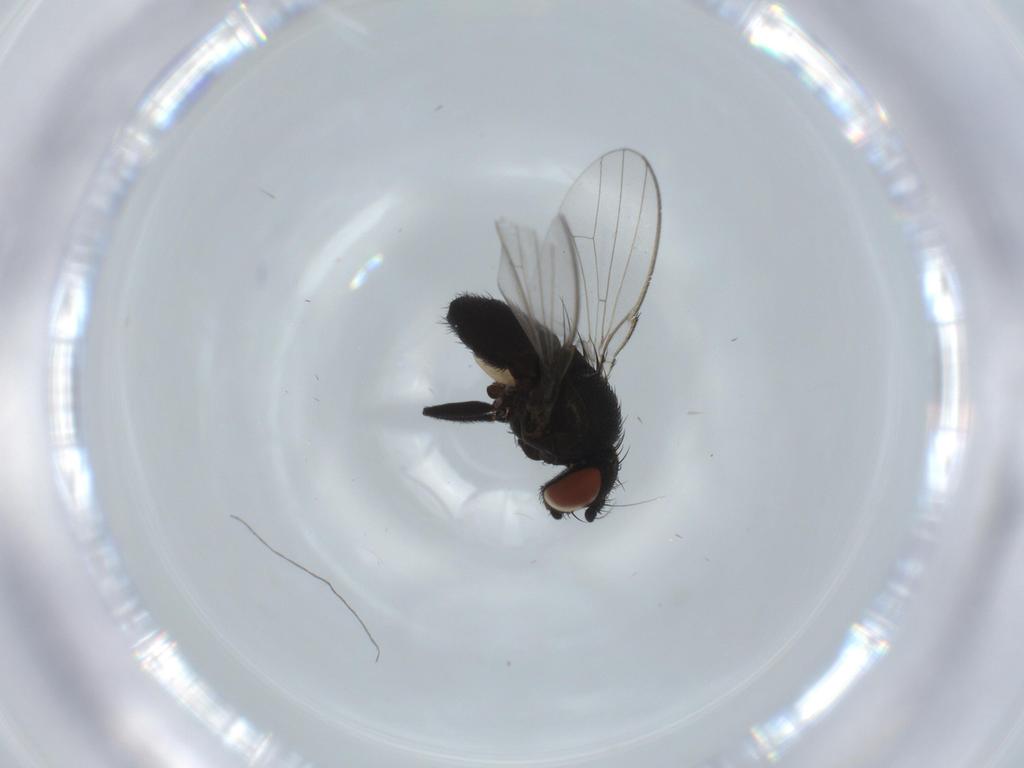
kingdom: Animalia
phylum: Arthropoda
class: Insecta
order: Diptera
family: Milichiidae
